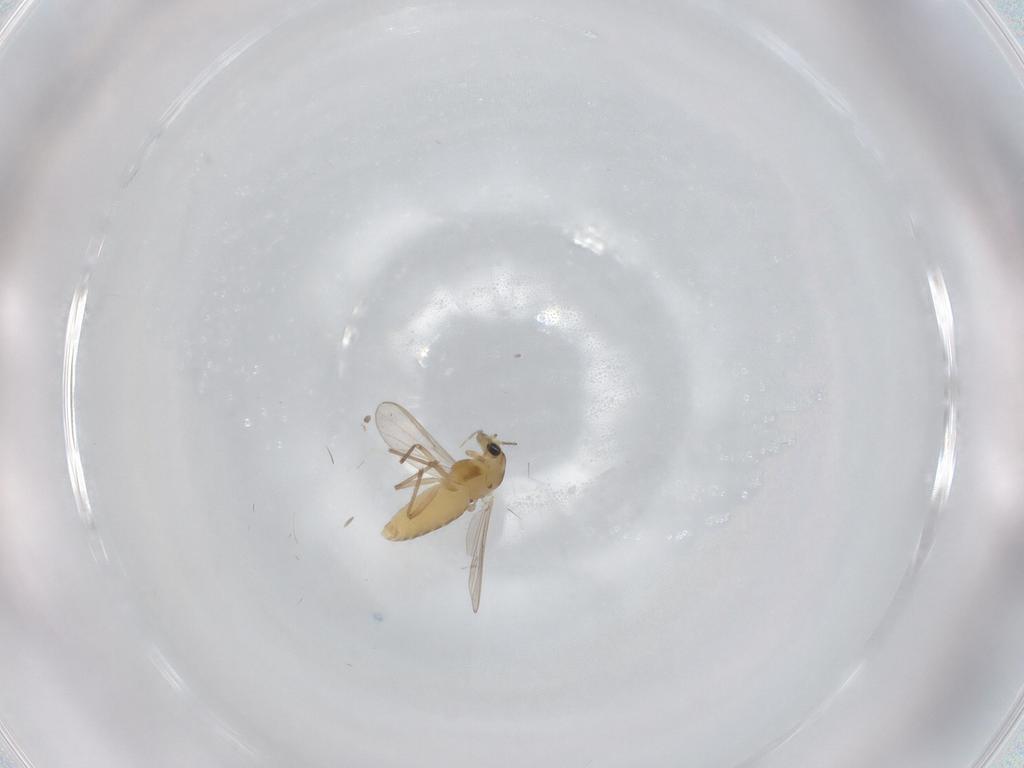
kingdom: Animalia
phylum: Arthropoda
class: Insecta
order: Diptera
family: Chironomidae
